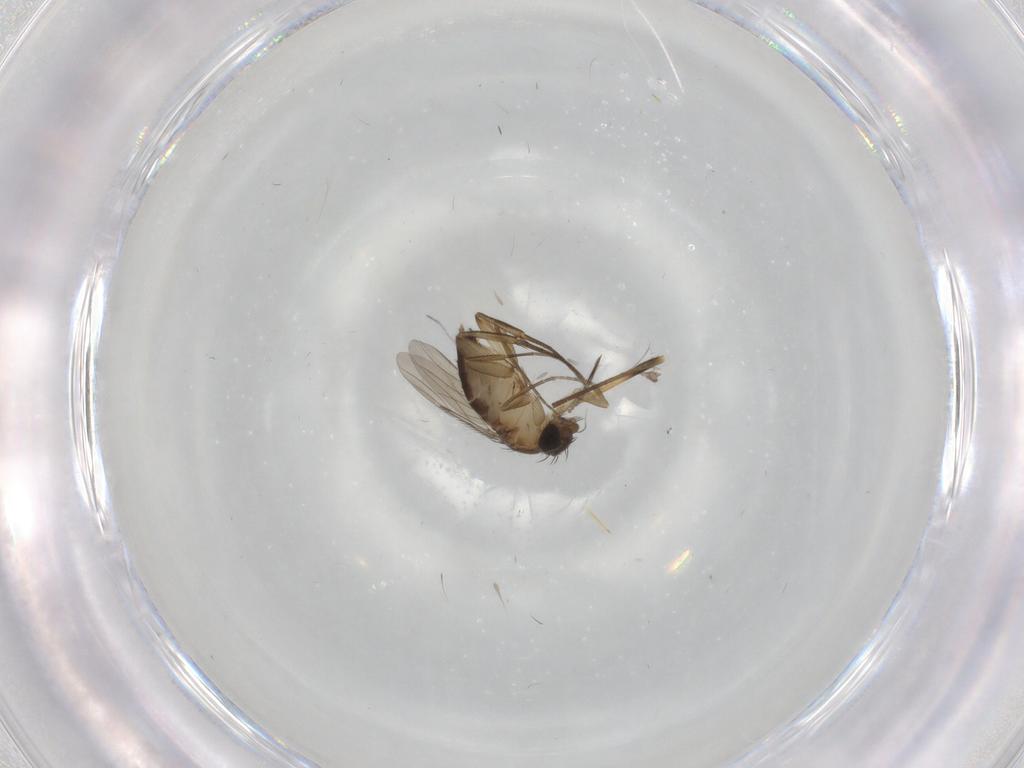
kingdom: Animalia
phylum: Arthropoda
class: Insecta
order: Diptera
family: Phoridae
